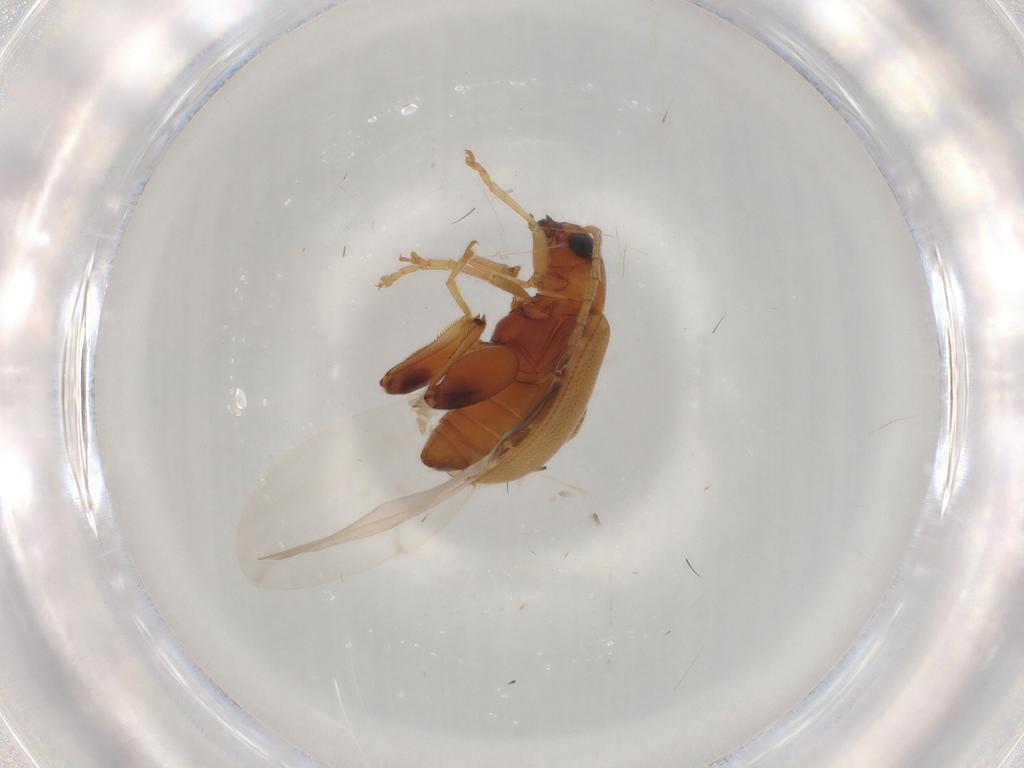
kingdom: Animalia
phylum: Arthropoda
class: Insecta
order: Coleoptera
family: Chrysomelidae
